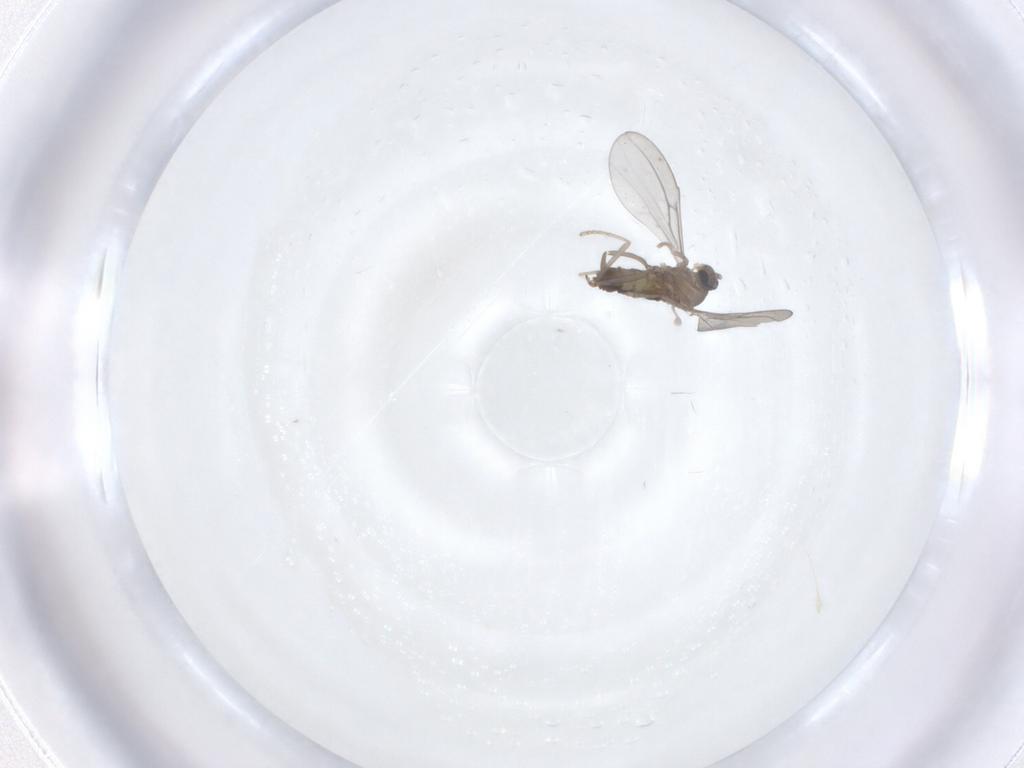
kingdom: Animalia
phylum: Arthropoda
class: Insecta
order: Diptera
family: Cecidomyiidae
